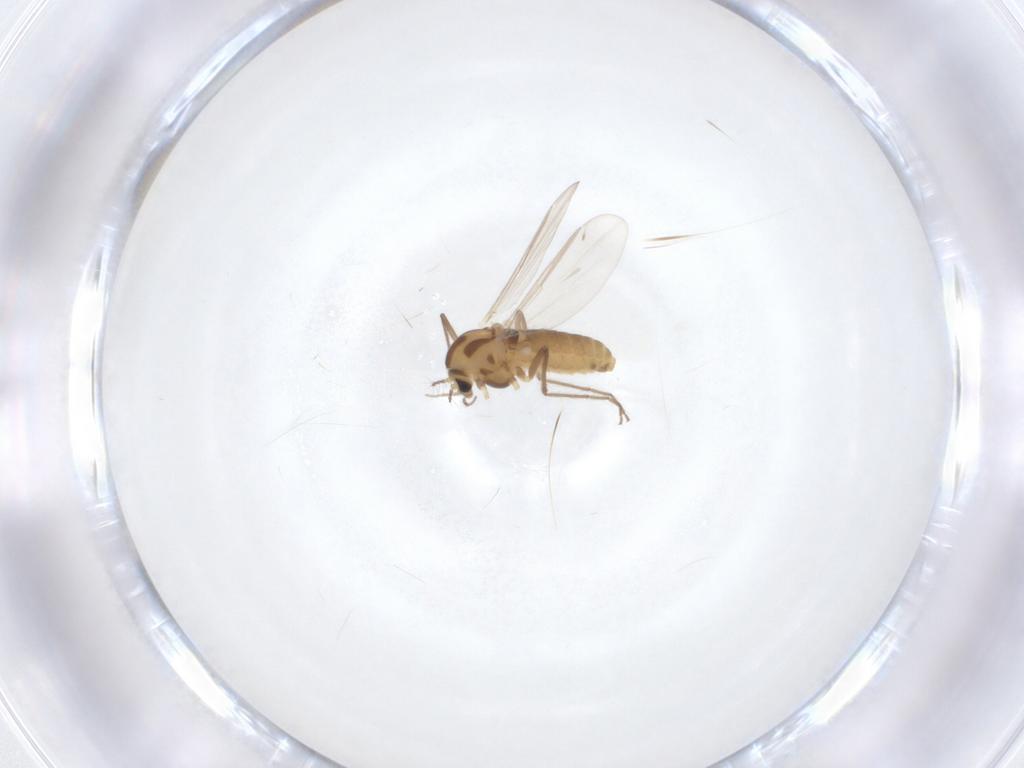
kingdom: Animalia
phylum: Arthropoda
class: Insecta
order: Diptera
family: Chironomidae
